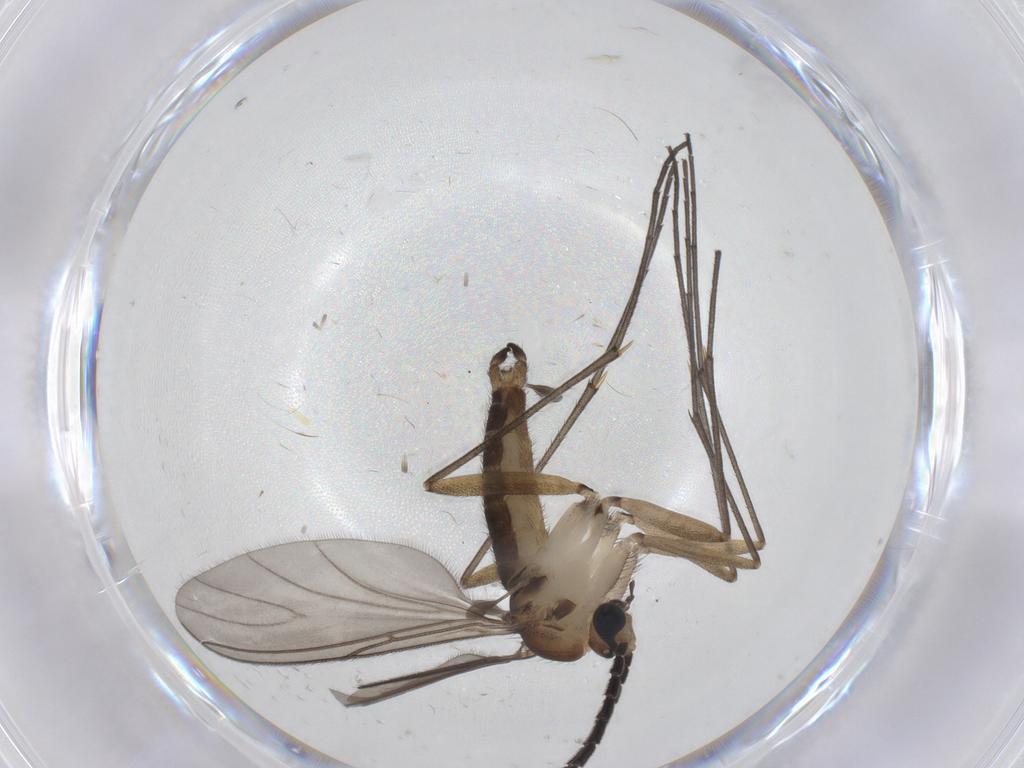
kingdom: Animalia
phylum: Arthropoda
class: Insecta
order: Diptera
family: Sciaridae
